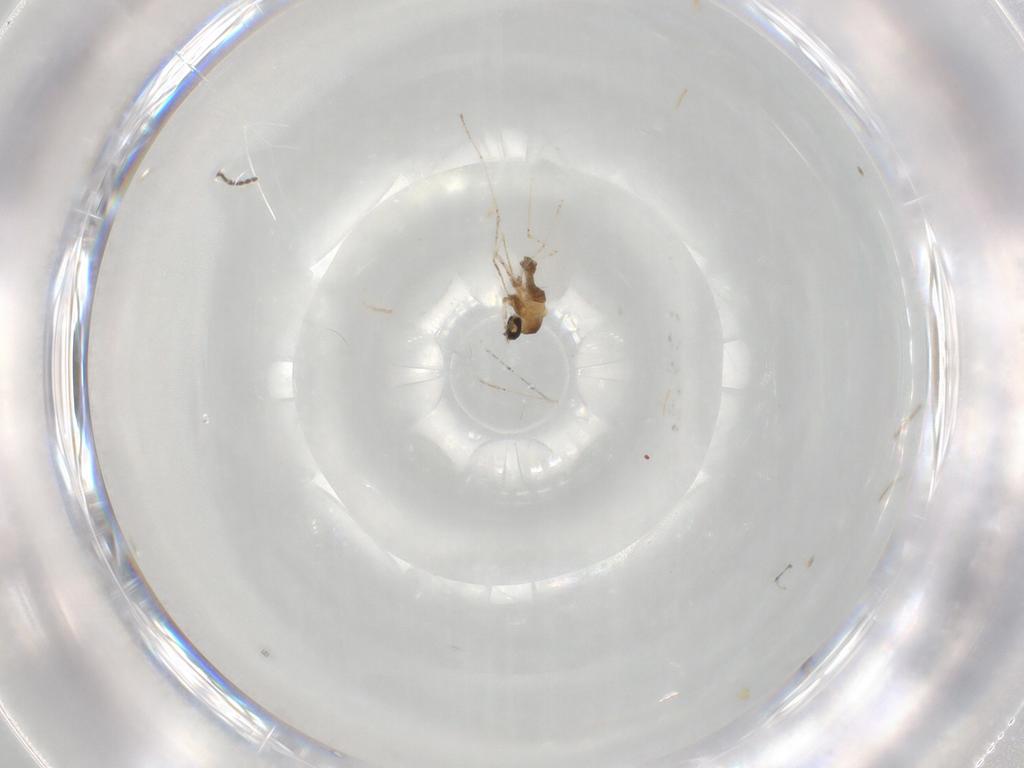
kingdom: Animalia
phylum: Arthropoda
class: Insecta
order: Diptera
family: Cecidomyiidae
